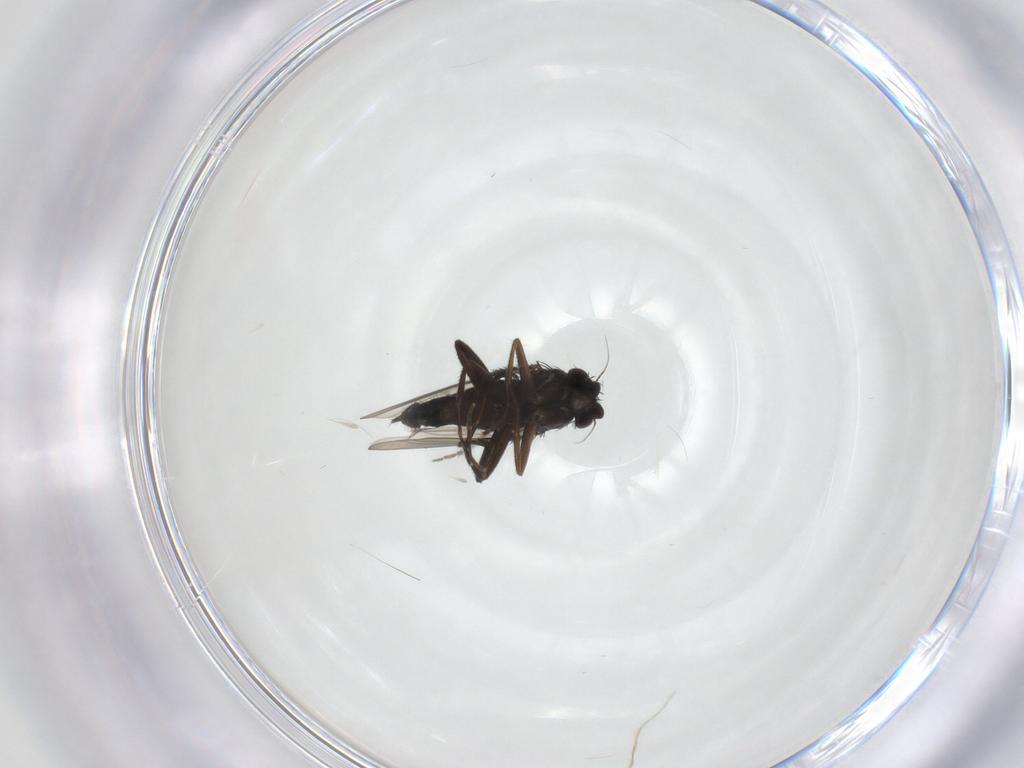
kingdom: Animalia
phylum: Arthropoda
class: Insecta
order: Diptera
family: Phoridae
